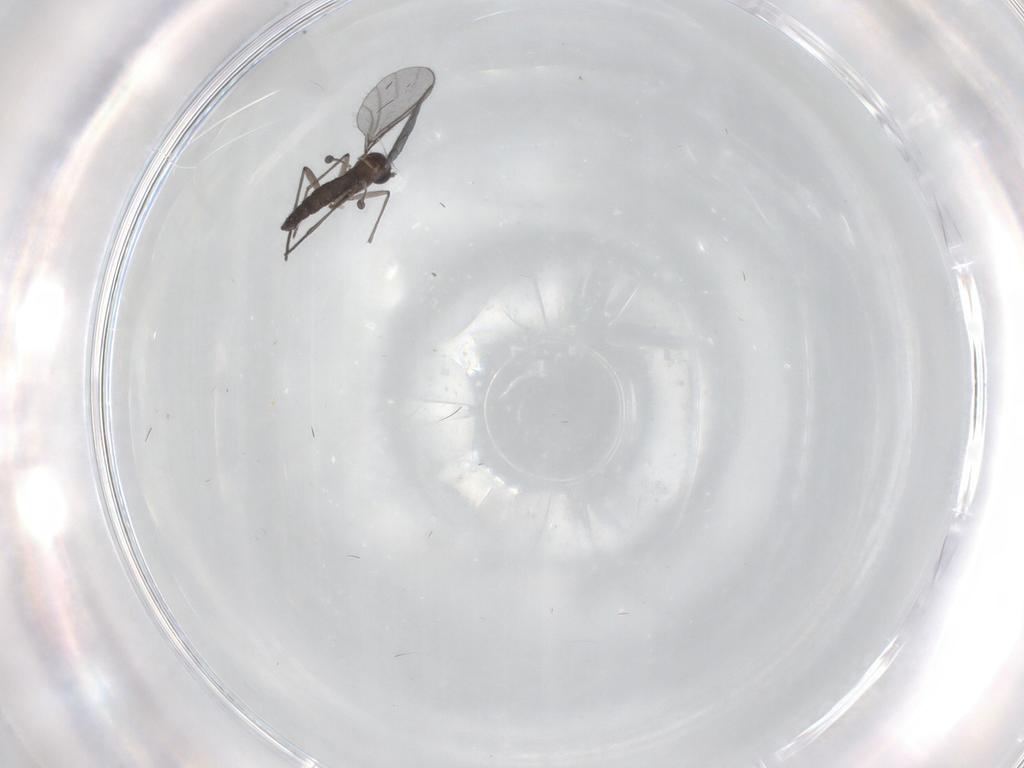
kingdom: Animalia
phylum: Arthropoda
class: Insecta
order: Diptera
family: Sciaridae
